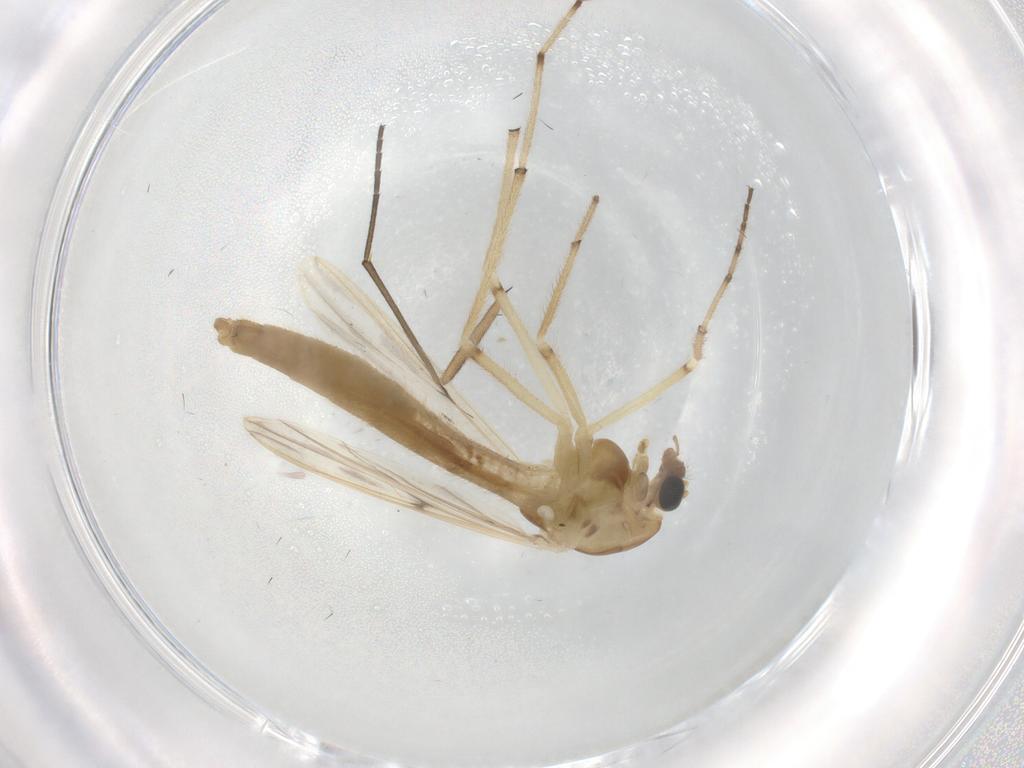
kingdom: Animalia
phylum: Arthropoda
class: Insecta
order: Diptera
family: Chironomidae
